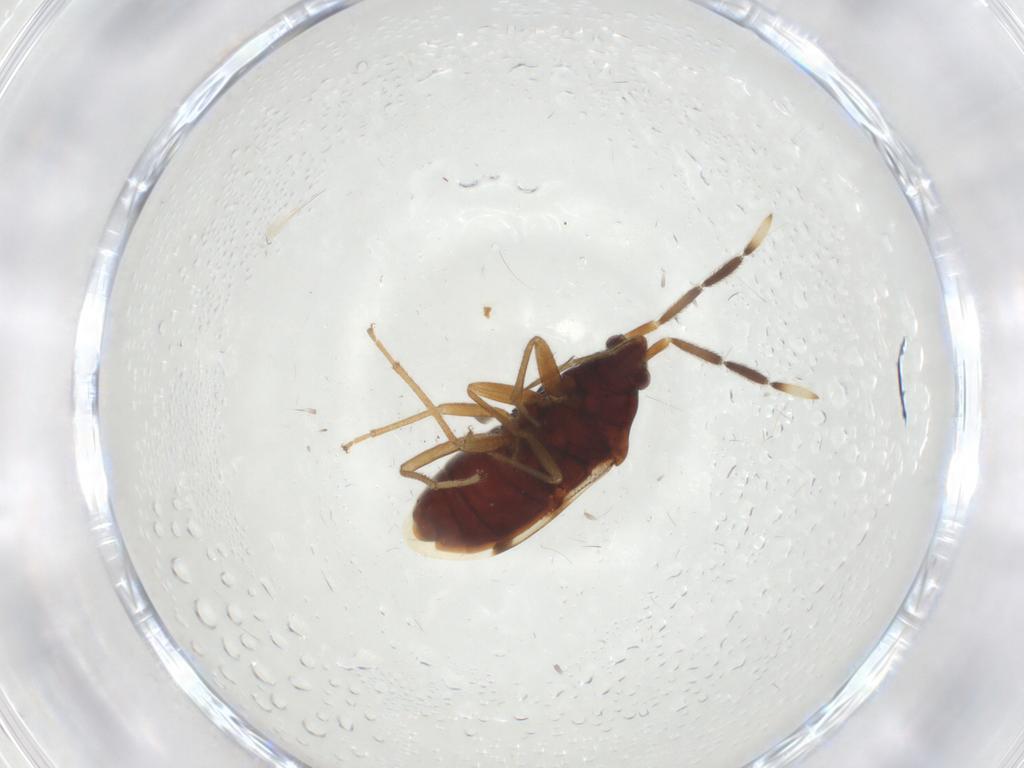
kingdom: Animalia
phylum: Arthropoda
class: Insecta
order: Hemiptera
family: Rhyparochromidae
